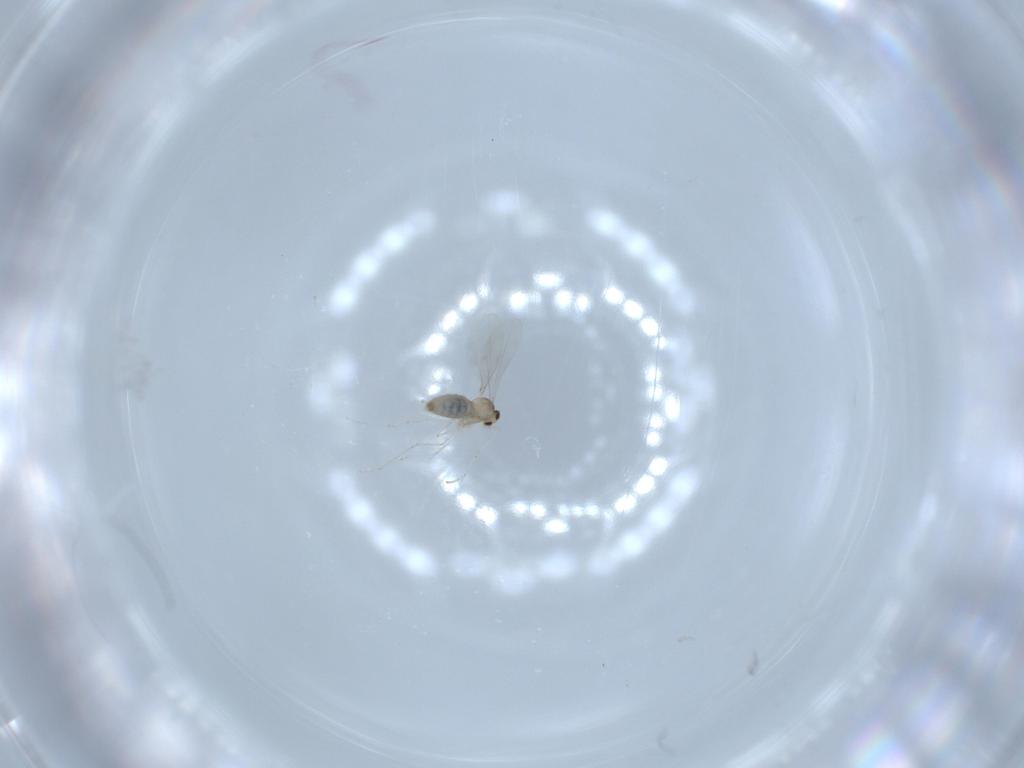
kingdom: Animalia
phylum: Arthropoda
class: Insecta
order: Diptera
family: Cecidomyiidae
